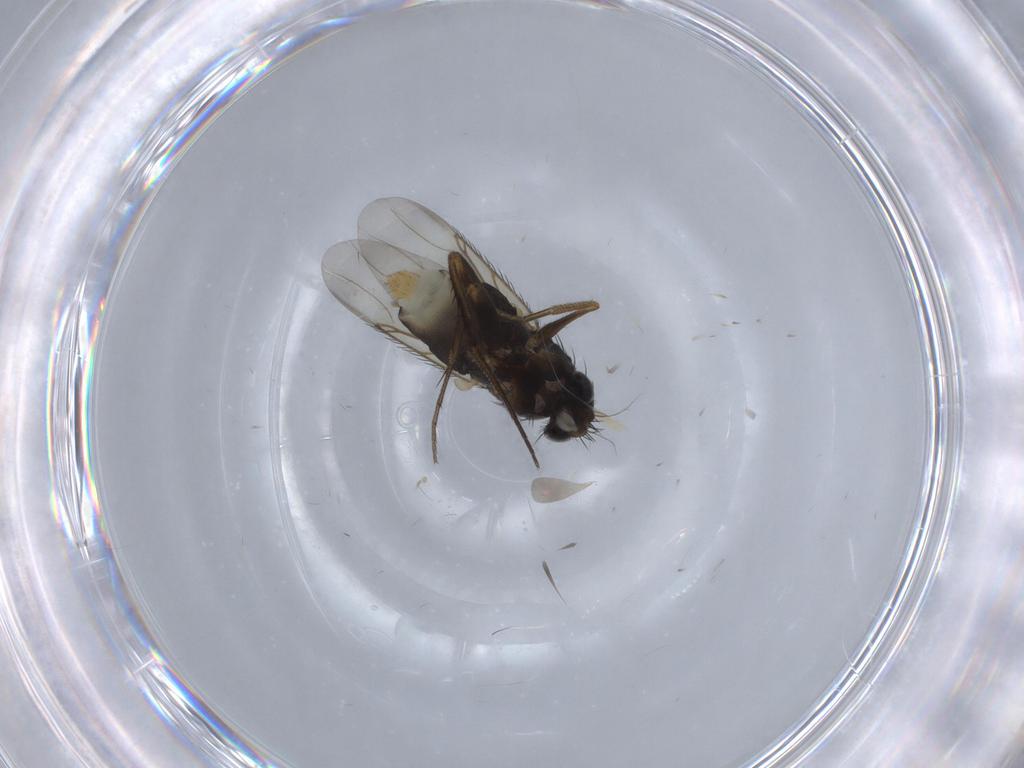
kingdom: Animalia
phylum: Arthropoda
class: Insecta
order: Diptera
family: Phoridae
